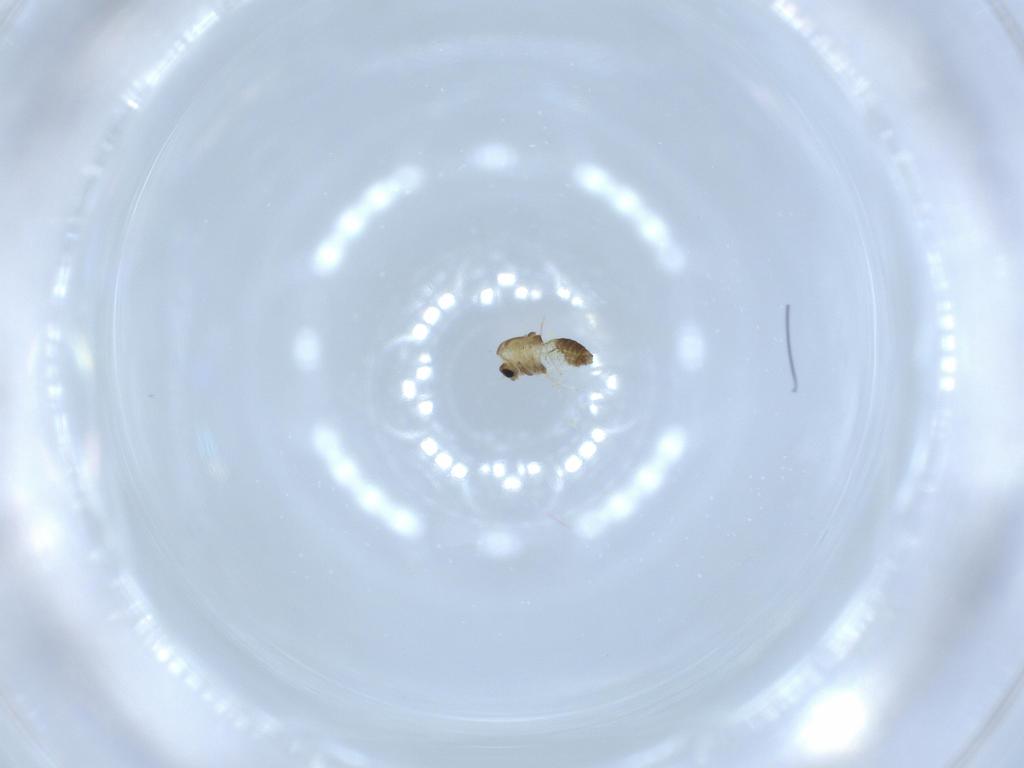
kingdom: Animalia
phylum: Arthropoda
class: Insecta
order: Diptera
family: Chironomidae
